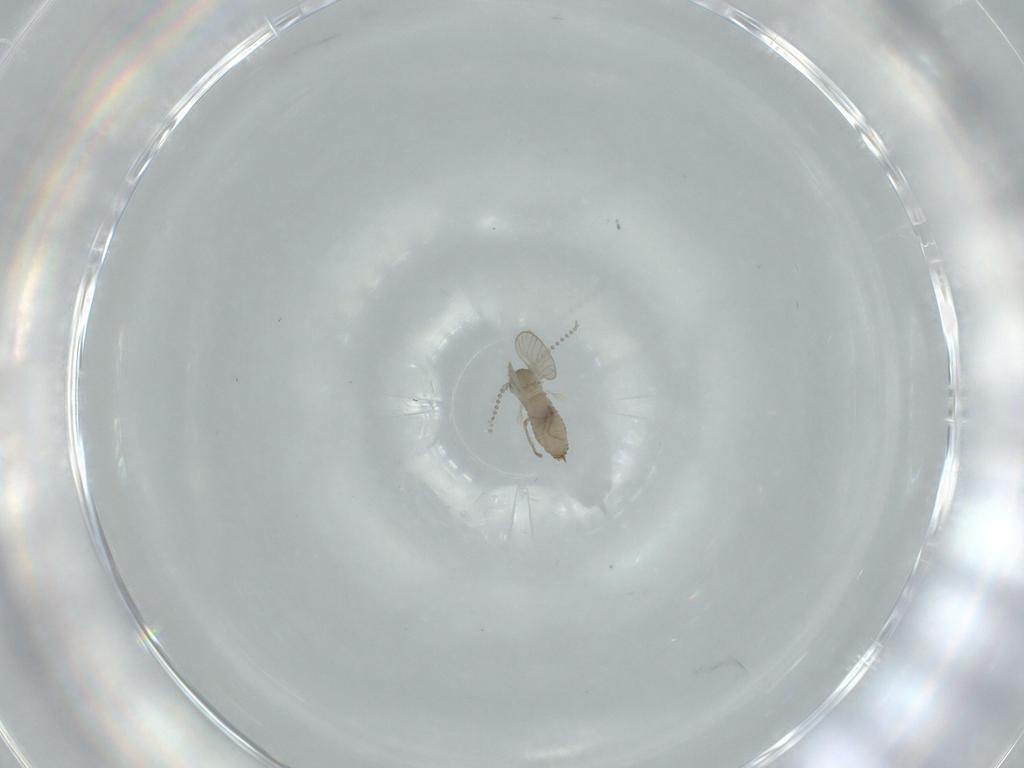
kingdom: Animalia
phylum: Arthropoda
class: Insecta
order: Diptera
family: Psychodidae
